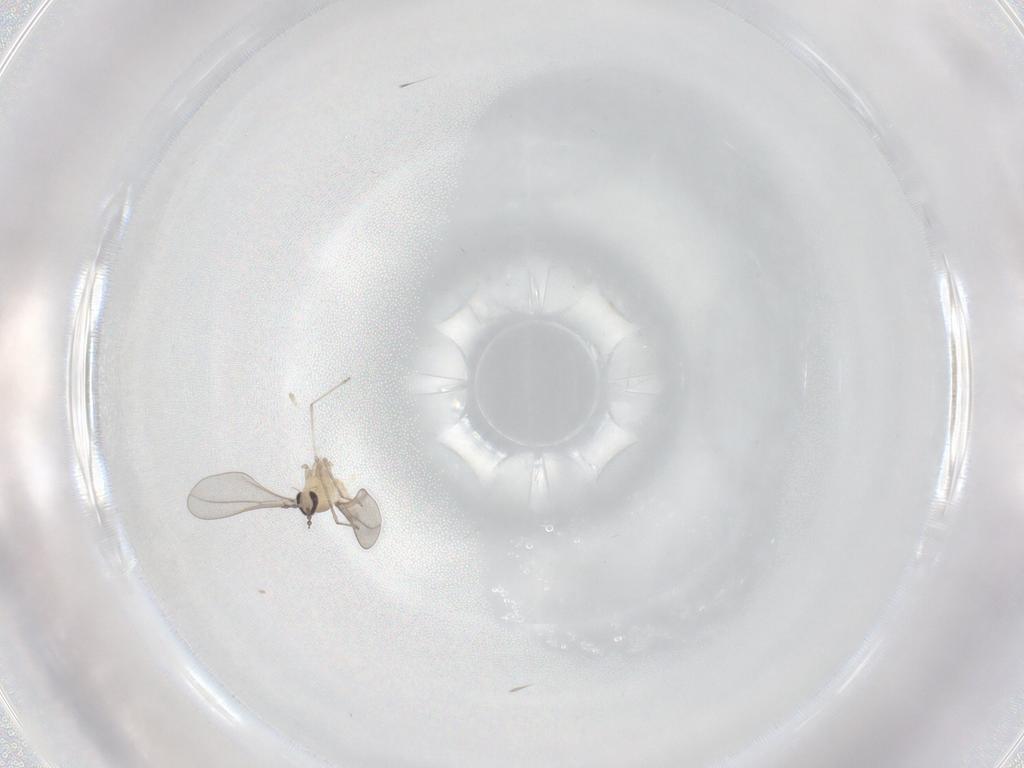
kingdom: Animalia
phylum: Arthropoda
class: Insecta
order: Diptera
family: Cecidomyiidae
